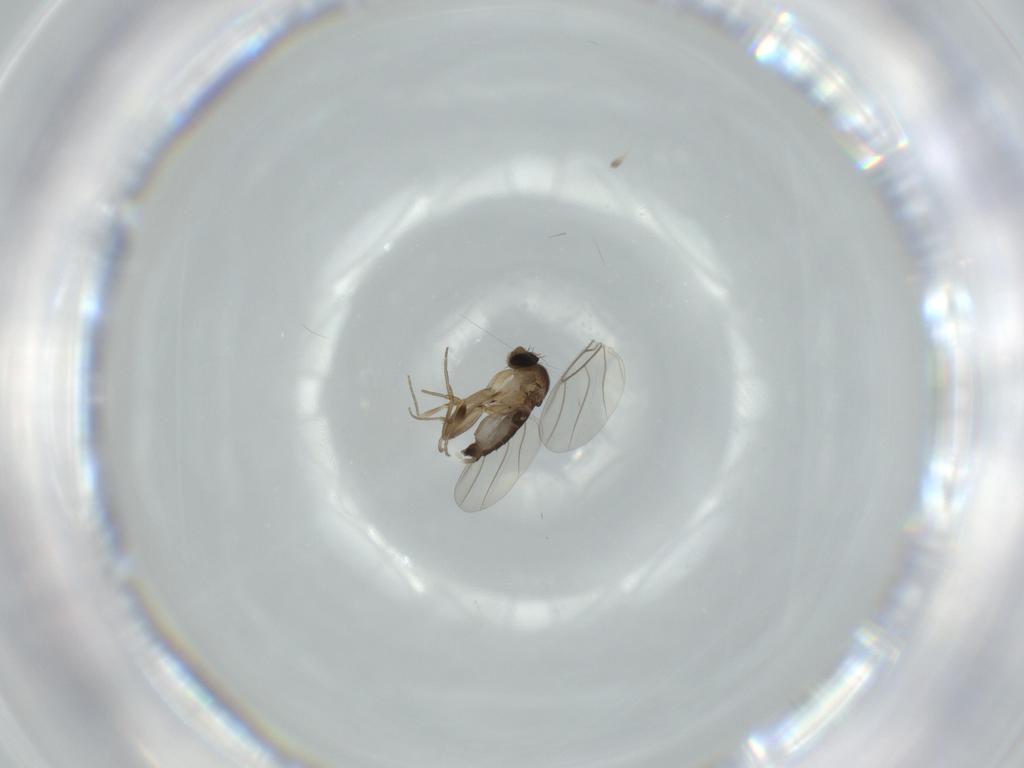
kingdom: Animalia
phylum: Arthropoda
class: Insecta
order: Diptera
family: Phoridae
